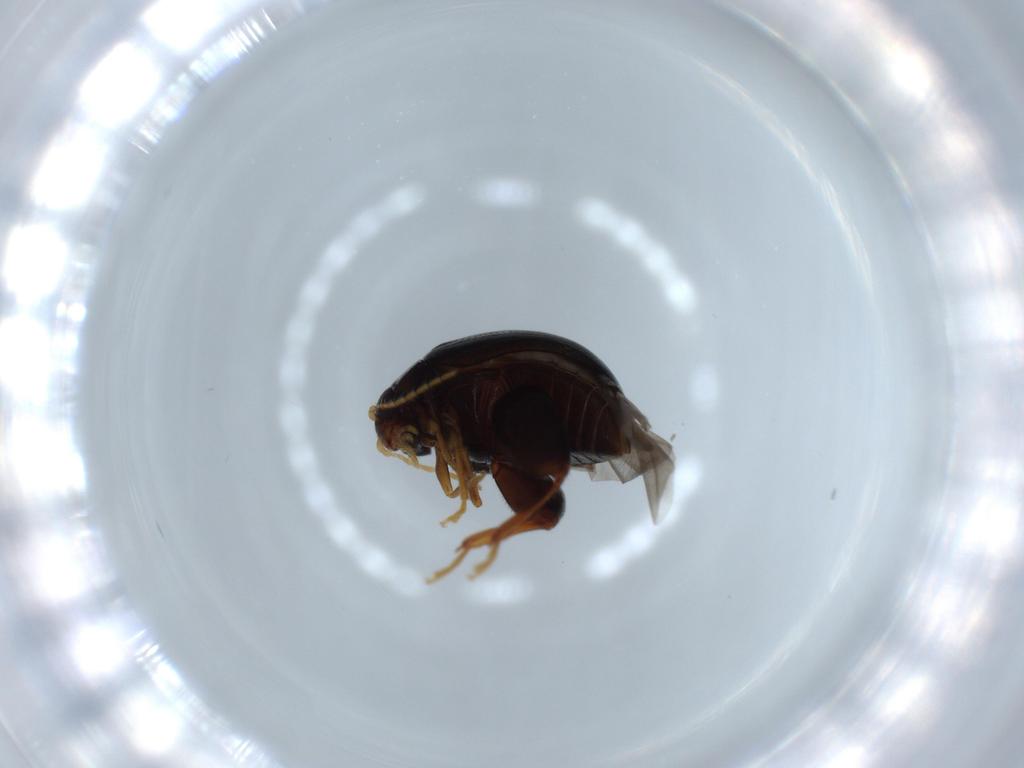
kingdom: Animalia
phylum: Arthropoda
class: Insecta
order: Coleoptera
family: Chrysomelidae
